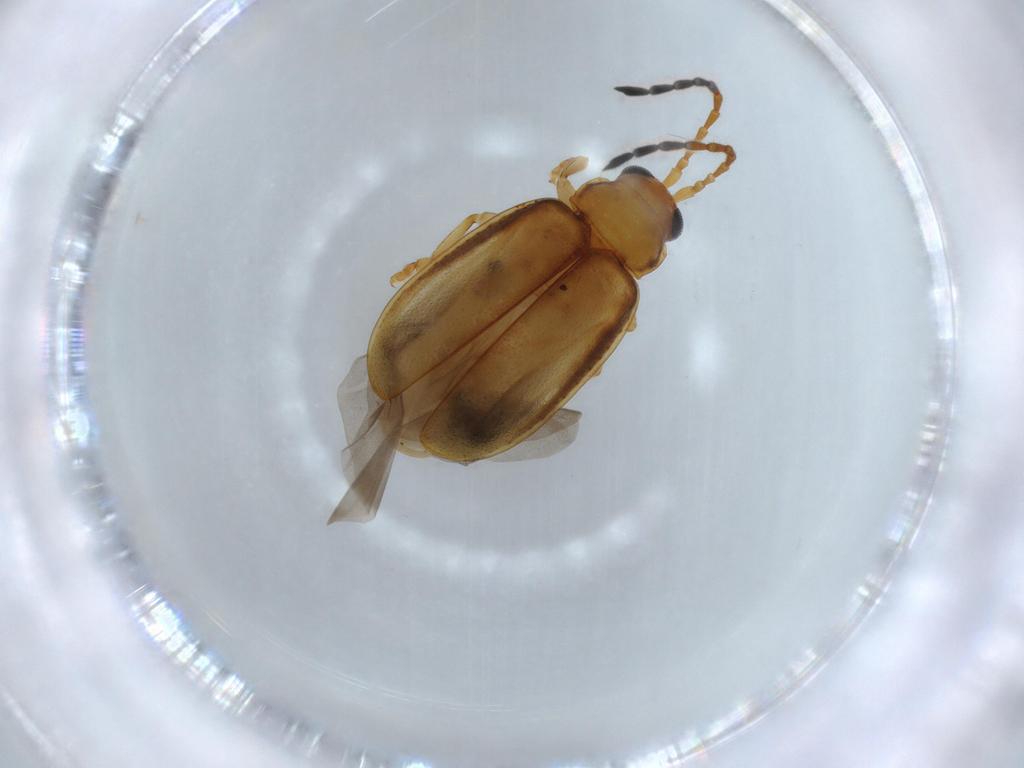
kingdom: Animalia
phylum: Arthropoda
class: Insecta
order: Coleoptera
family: Chrysomelidae
